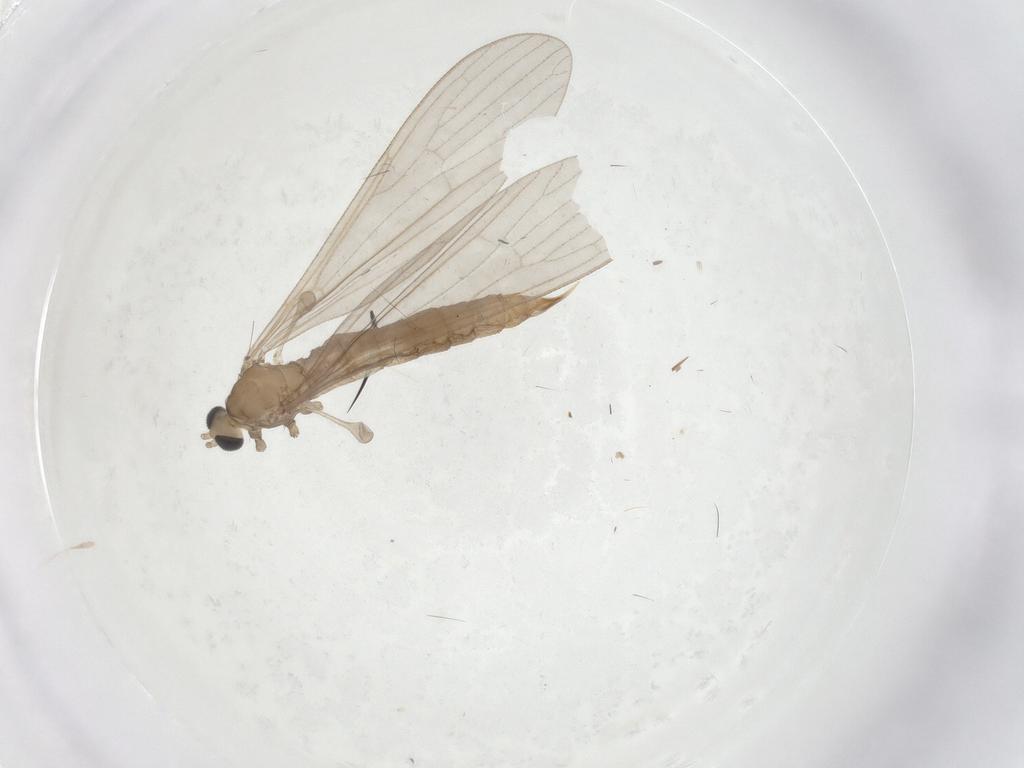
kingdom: Animalia
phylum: Arthropoda
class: Insecta
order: Diptera
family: Limoniidae
